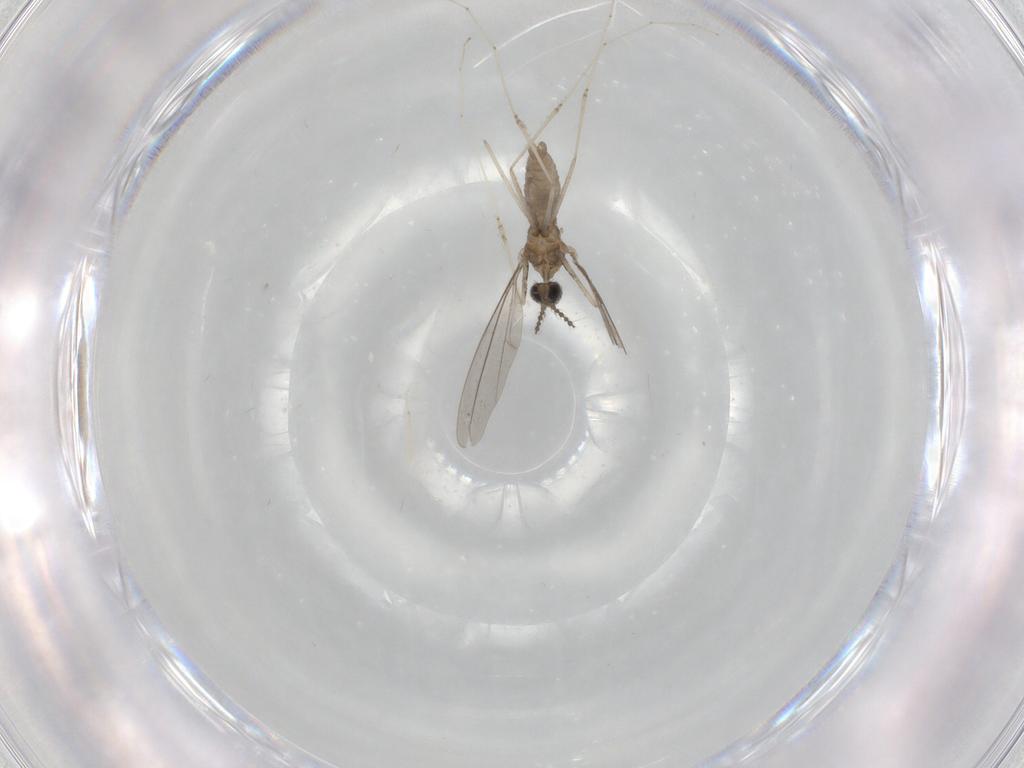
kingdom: Animalia
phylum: Arthropoda
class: Insecta
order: Diptera
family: Cecidomyiidae
